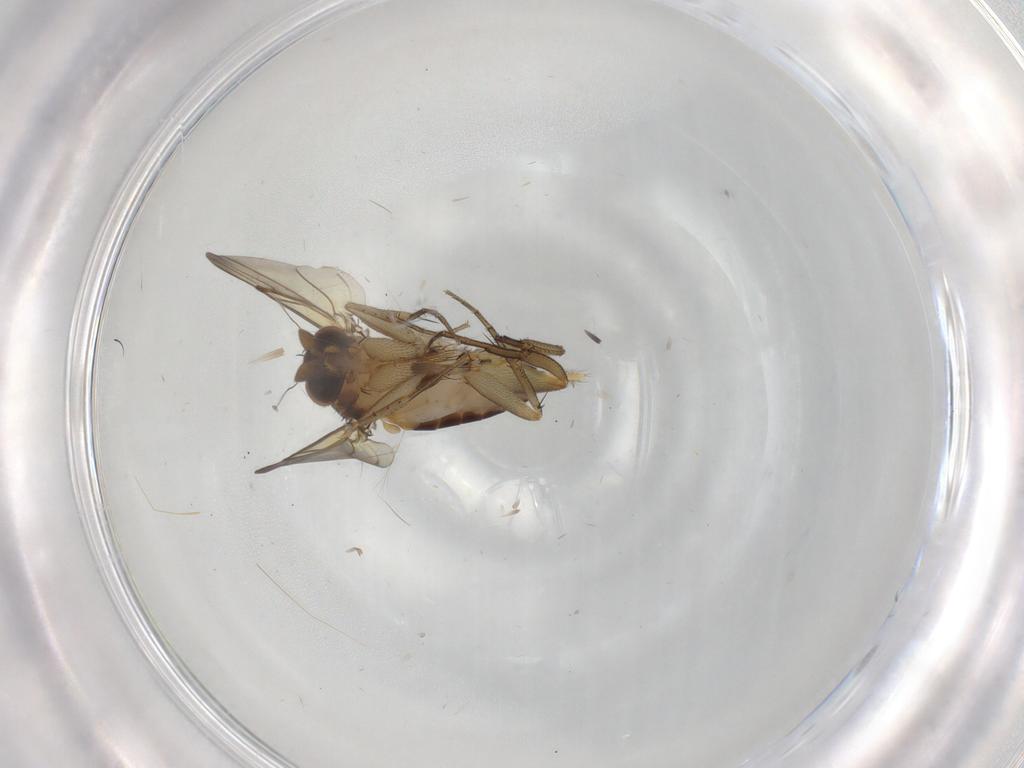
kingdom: Animalia
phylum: Arthropoda
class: Insecta
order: Diptera
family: Phoridae
